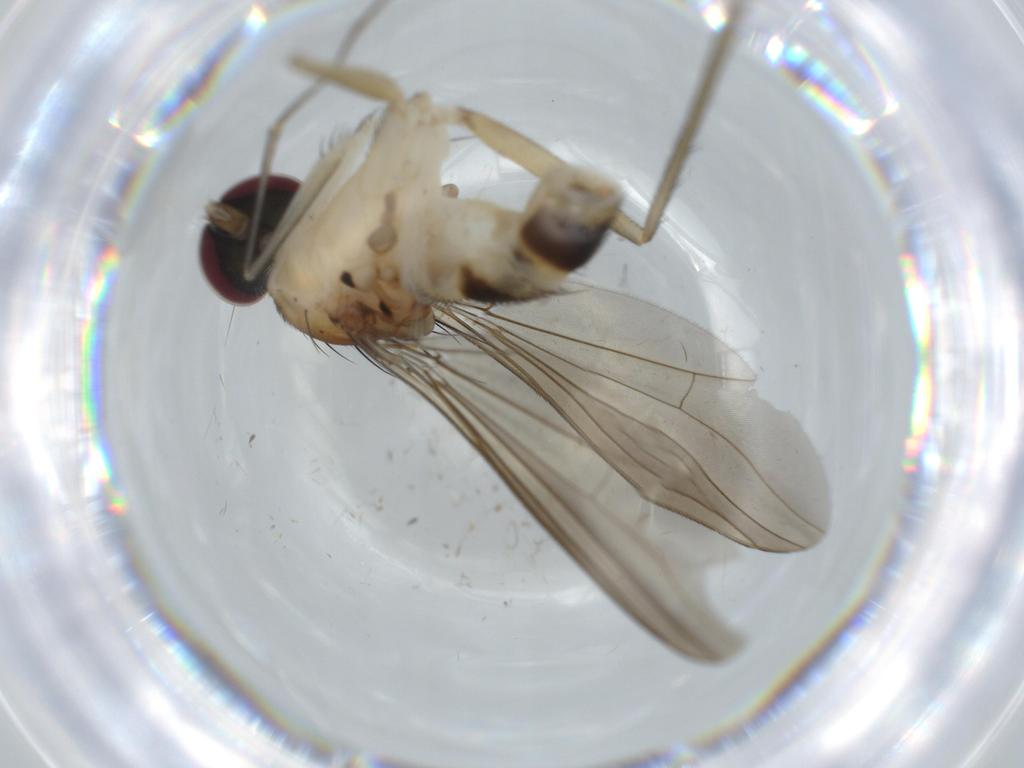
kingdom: Animalia
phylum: Arthropoda
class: Insecta
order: Diptera
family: Dolichopodidae
